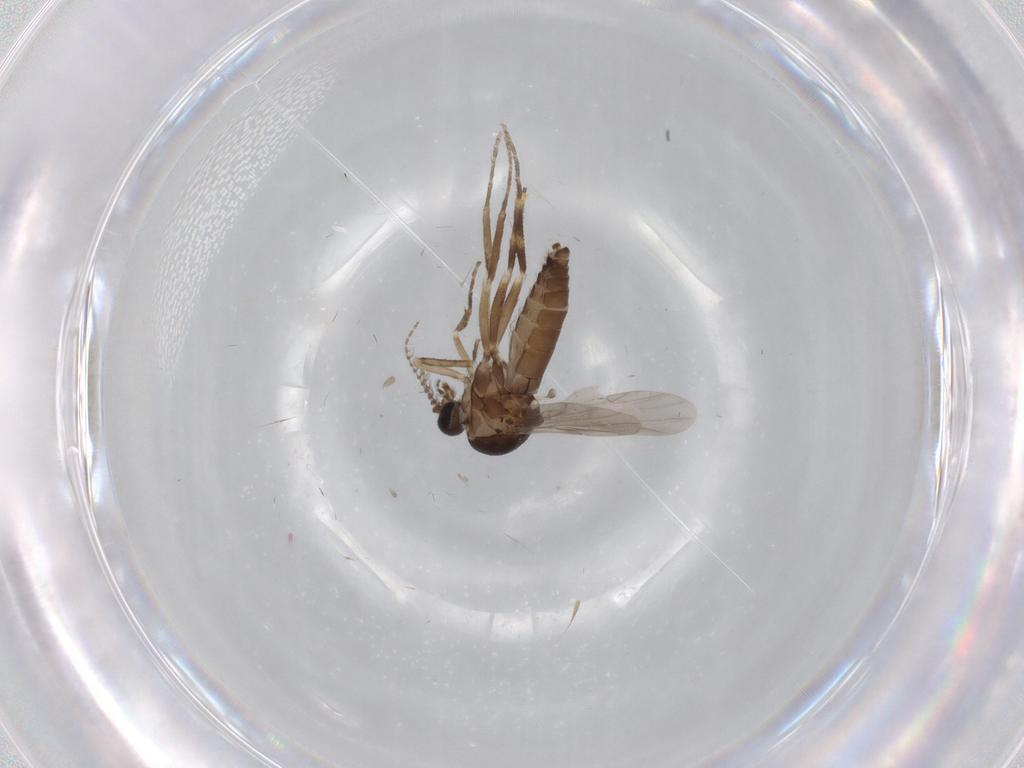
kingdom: Animalia
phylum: Arthropoda
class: Insecta
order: Diptera
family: Ceratopogonidae
